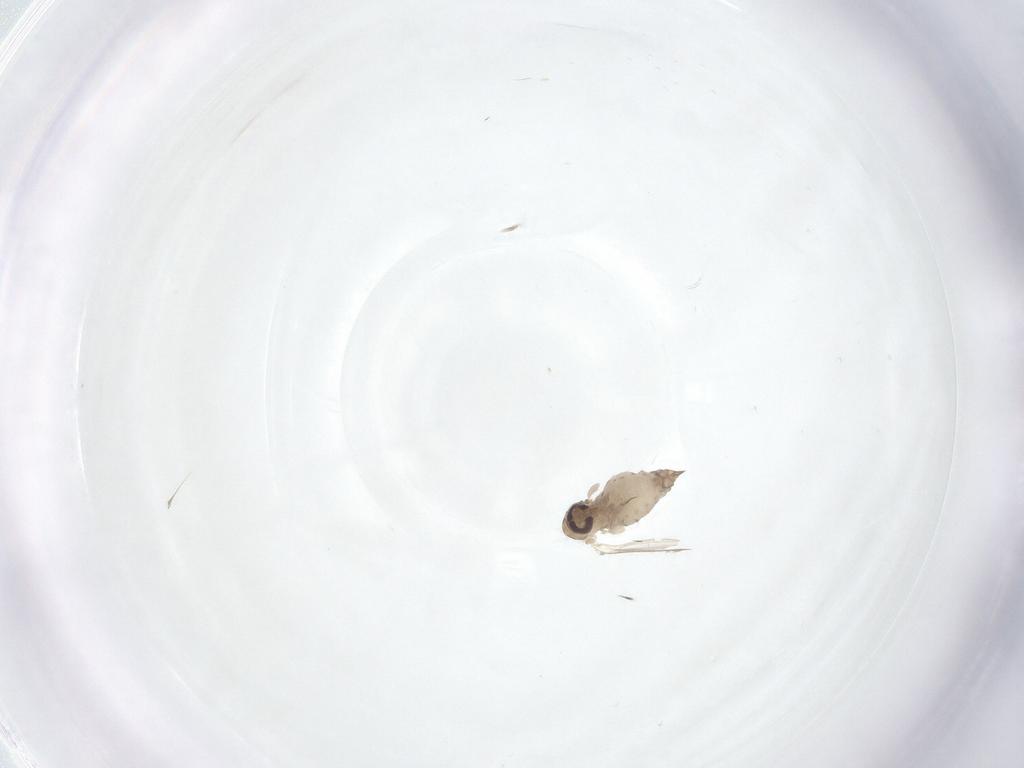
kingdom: Animalia
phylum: Arthropoda
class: Insecta
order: Diptera
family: Psychodidae
